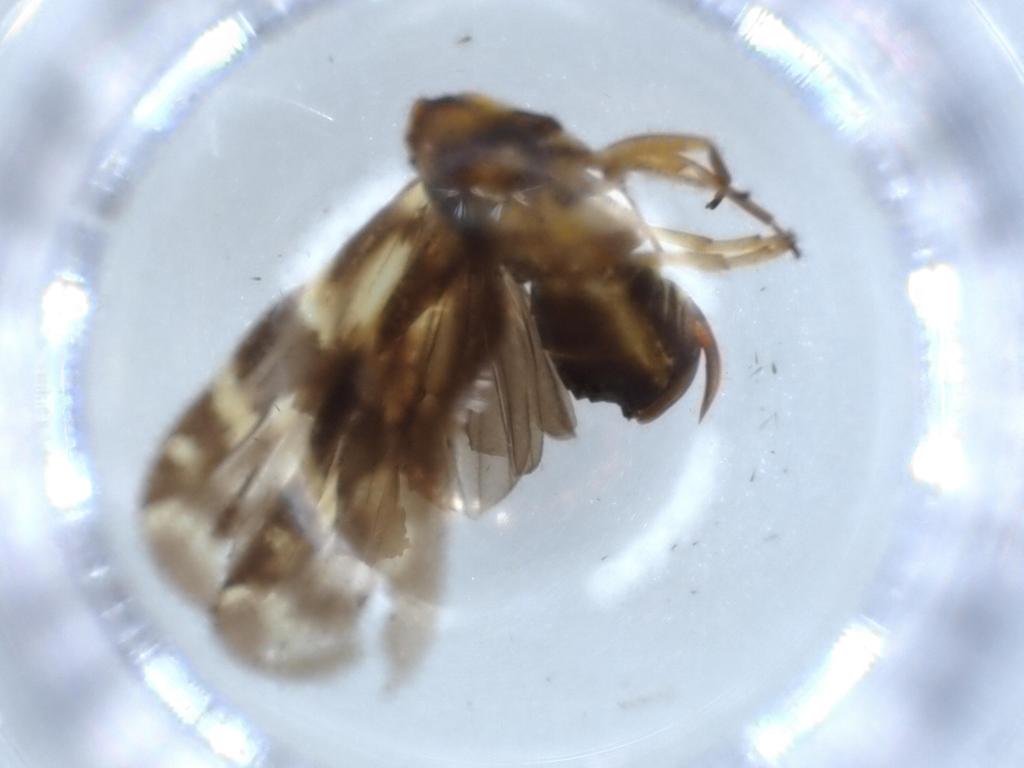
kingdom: Animalia
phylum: Arthropoda
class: Insecta
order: Hemiptera
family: Cixiidae
